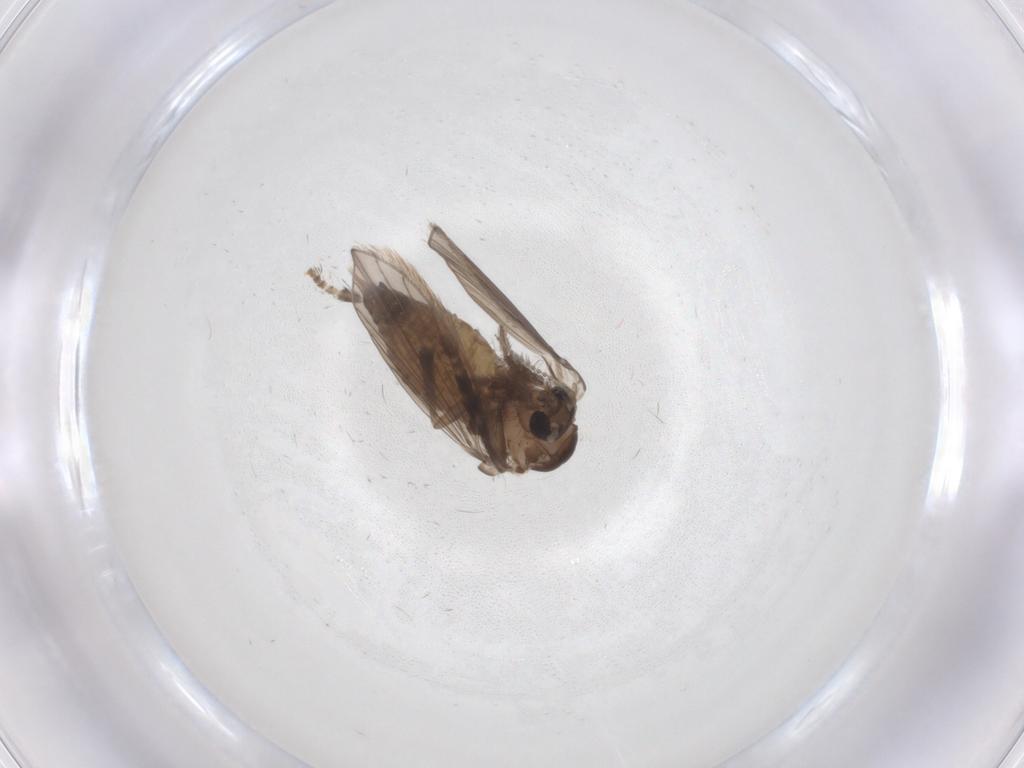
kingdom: Animalia
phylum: Arthropoda
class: Insecta
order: Diptera
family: Psychodidae
